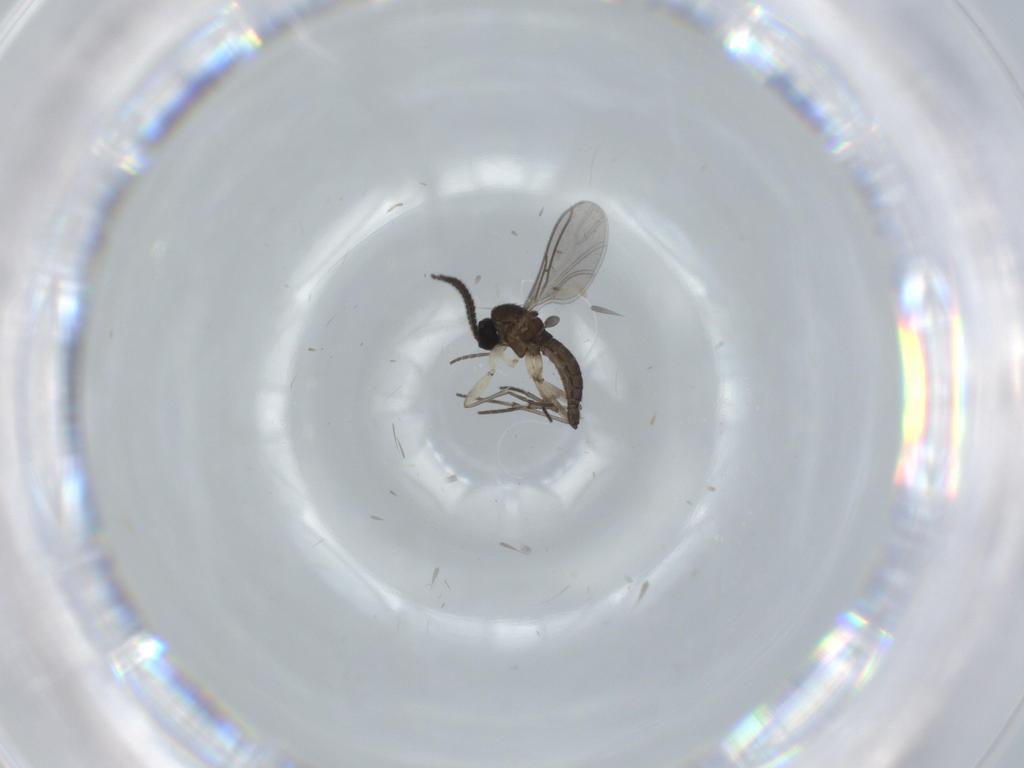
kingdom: Animalia
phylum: Arthropoda
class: Insecta
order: Diptera
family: Sciaridae
